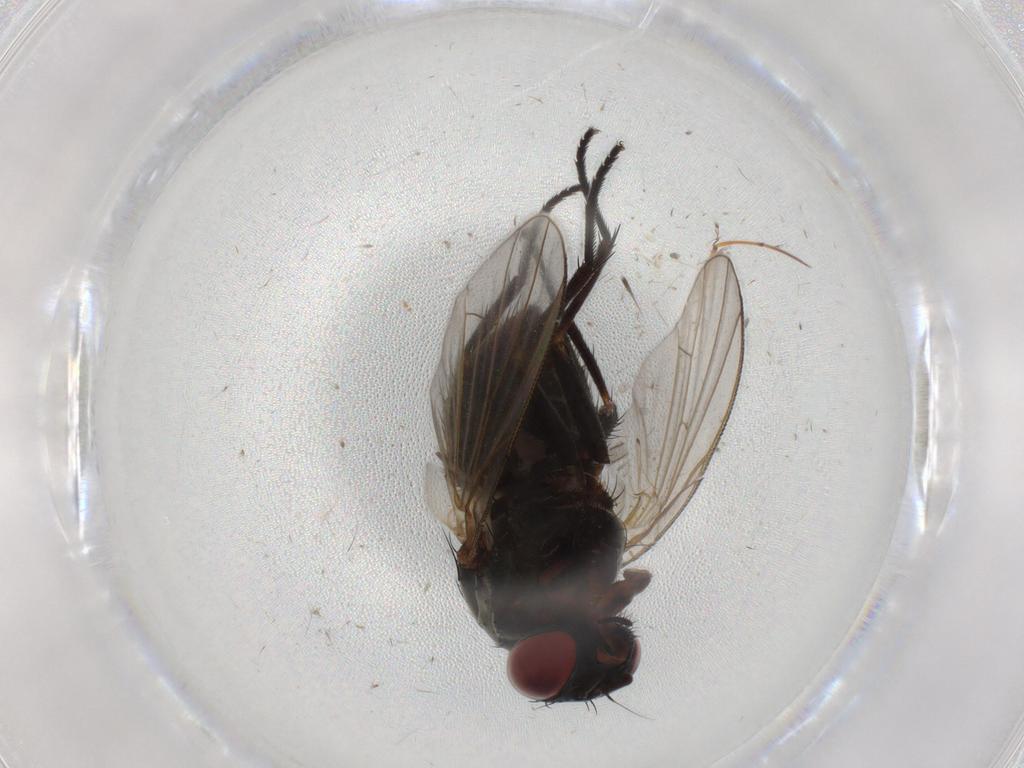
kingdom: Animalia
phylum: Arthropoda
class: Insecta
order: Diptera
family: Muscidae
